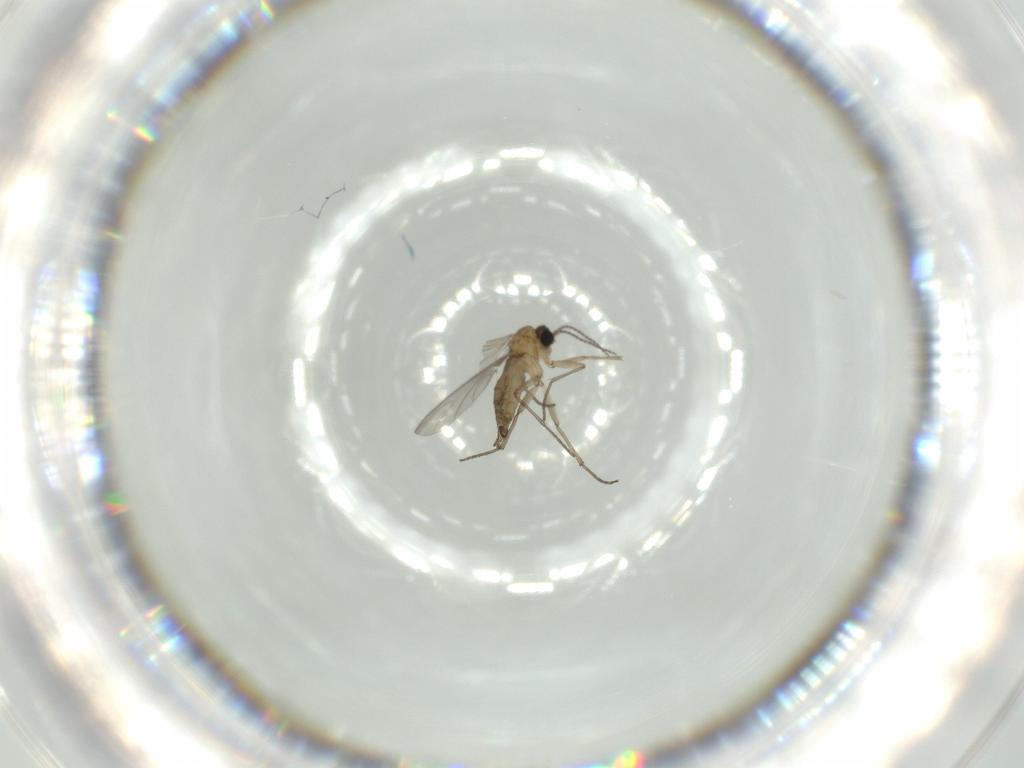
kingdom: Animalia
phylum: Arthropoda
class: Insecta
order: Diptera
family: Sciaridae
